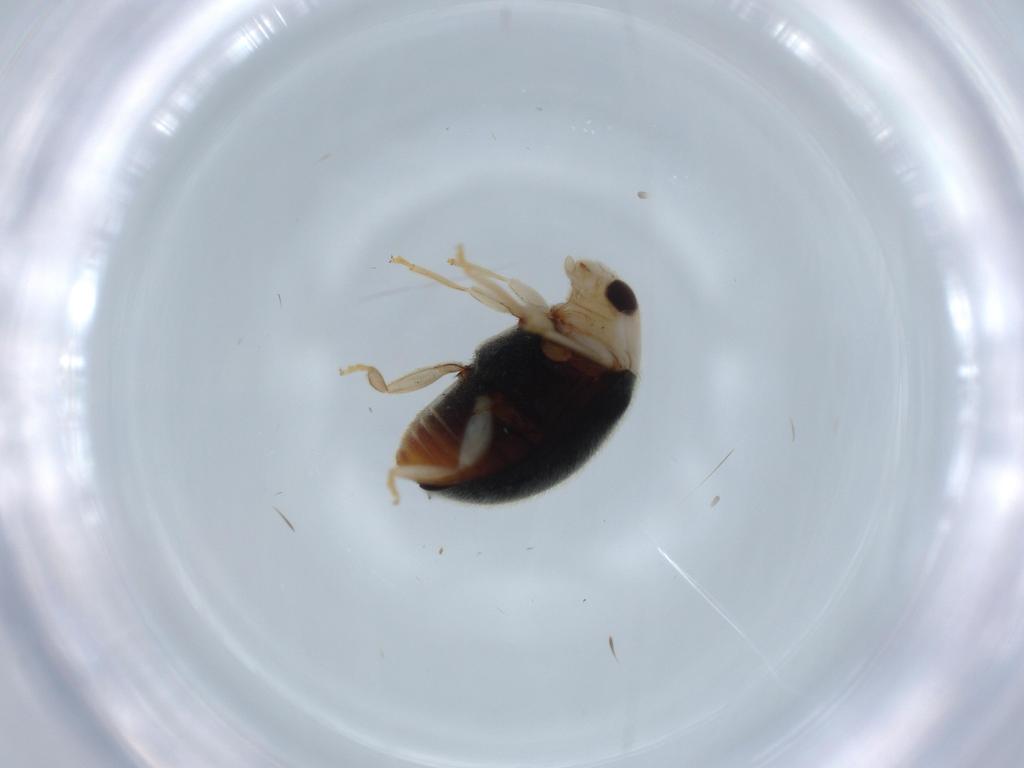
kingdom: Animalia
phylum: Arthropoda
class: Insecta
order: Coleoptera
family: Coccinellidae
